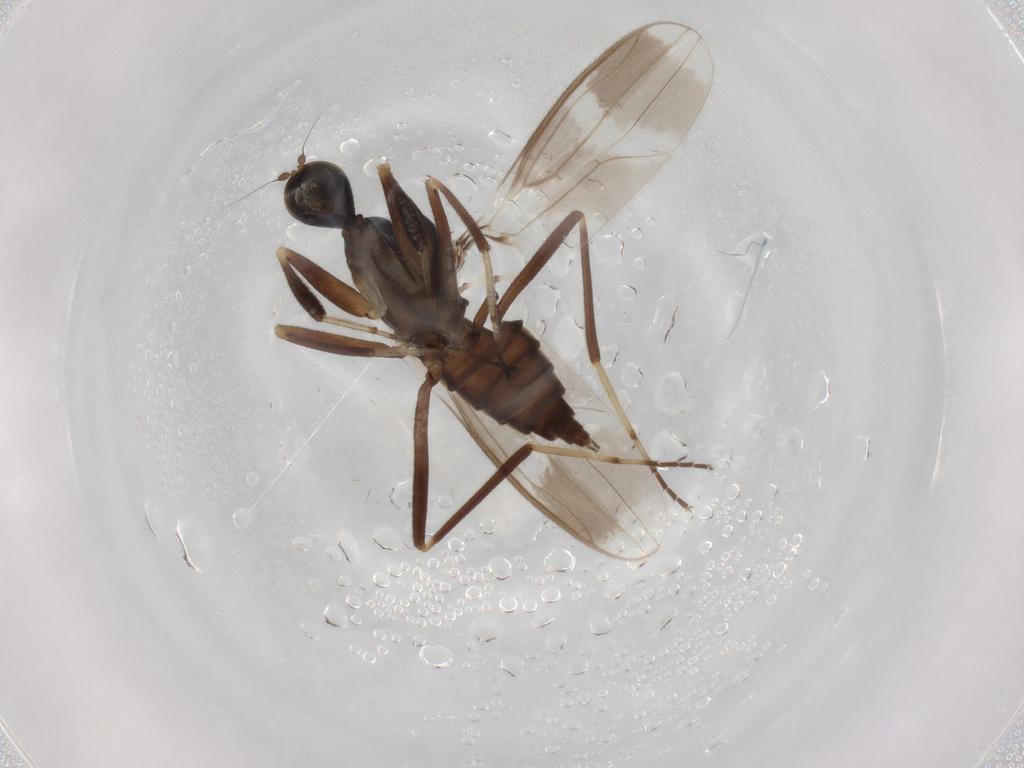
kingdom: Animalia
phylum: Arthropoda
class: Insecta
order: Diptera
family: Hybotidae
